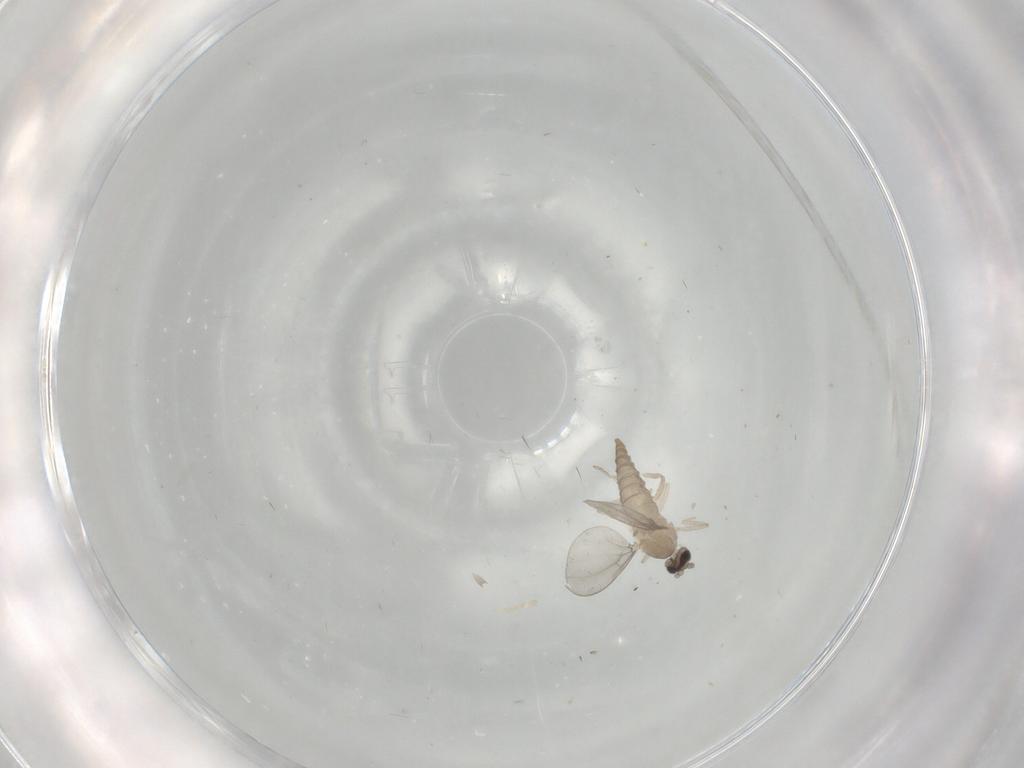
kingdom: Animalia
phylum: Arthropoda
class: Insecta
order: Diptera
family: Cecidomyiidae
